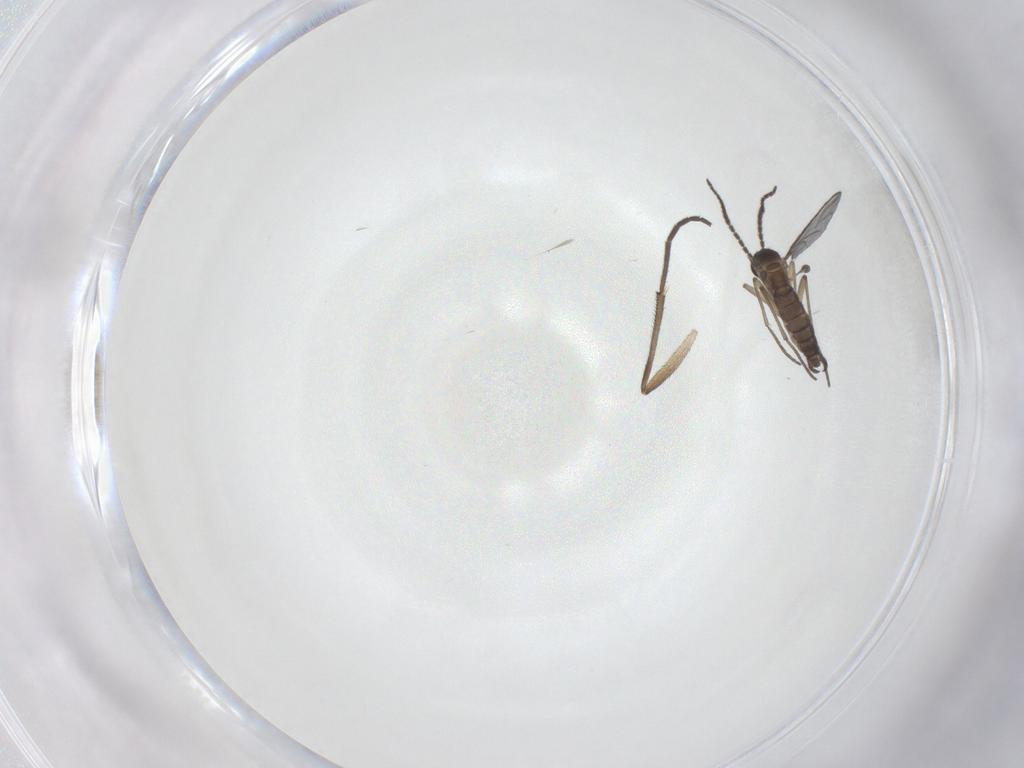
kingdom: Animalia
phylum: Arthropoda
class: Insecta
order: Diptera
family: Sciaridae
